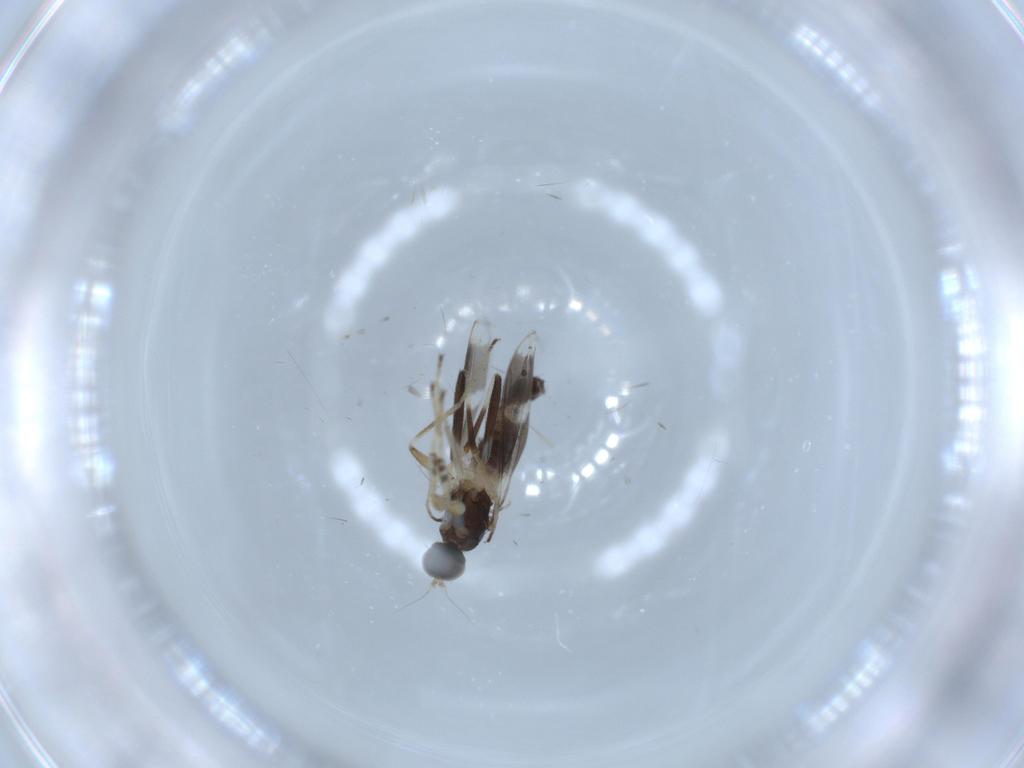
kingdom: Animalia
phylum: Arthropoda
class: Insecta
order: Diptera
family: Hybotidae
